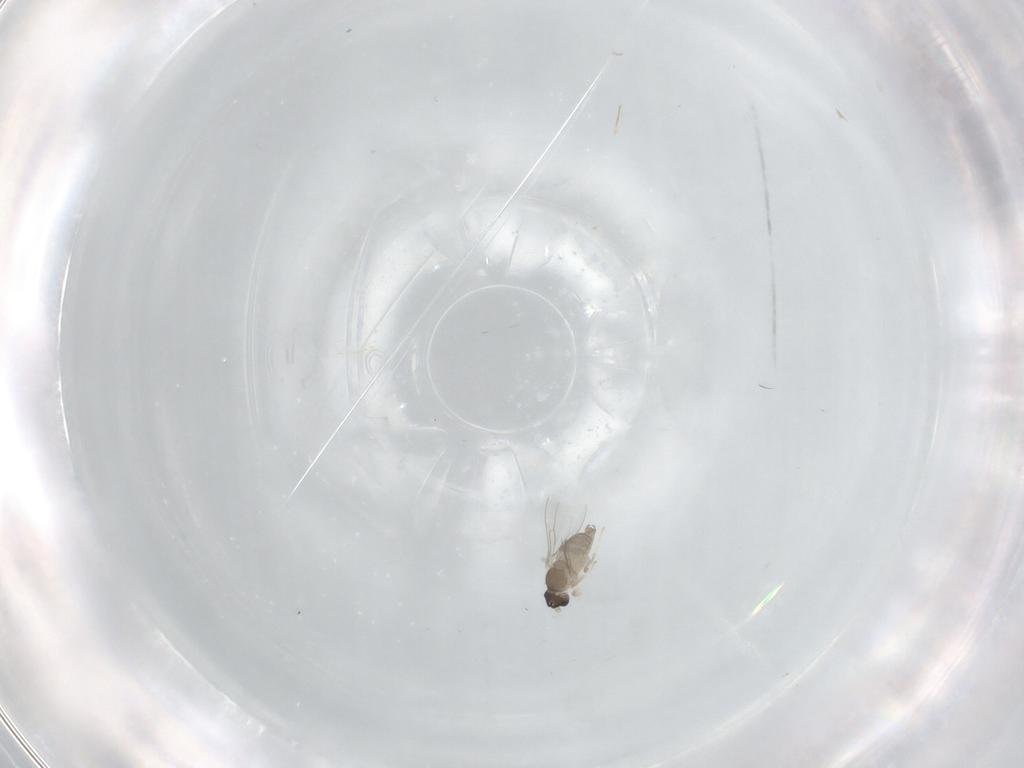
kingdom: Animalia
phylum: Arthropoda
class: Insecta
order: Diptera
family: Cecidomyiidae
